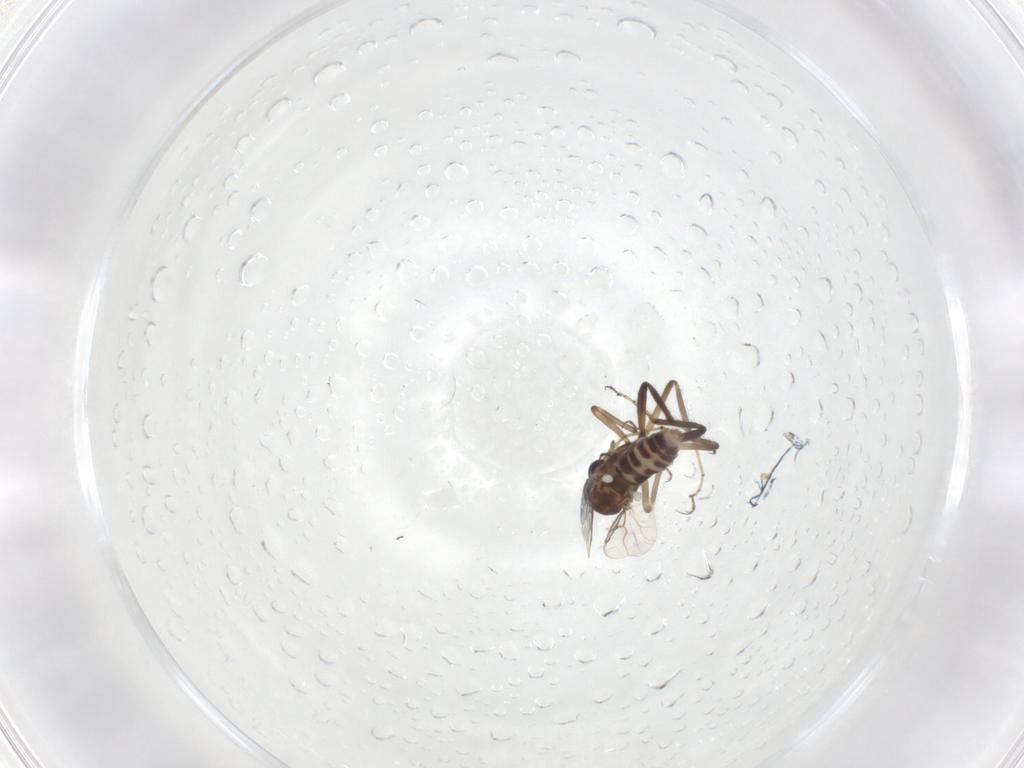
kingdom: Animalia
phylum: Arthropoda
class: Insecta
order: Diptera
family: Ceratopogonidae
